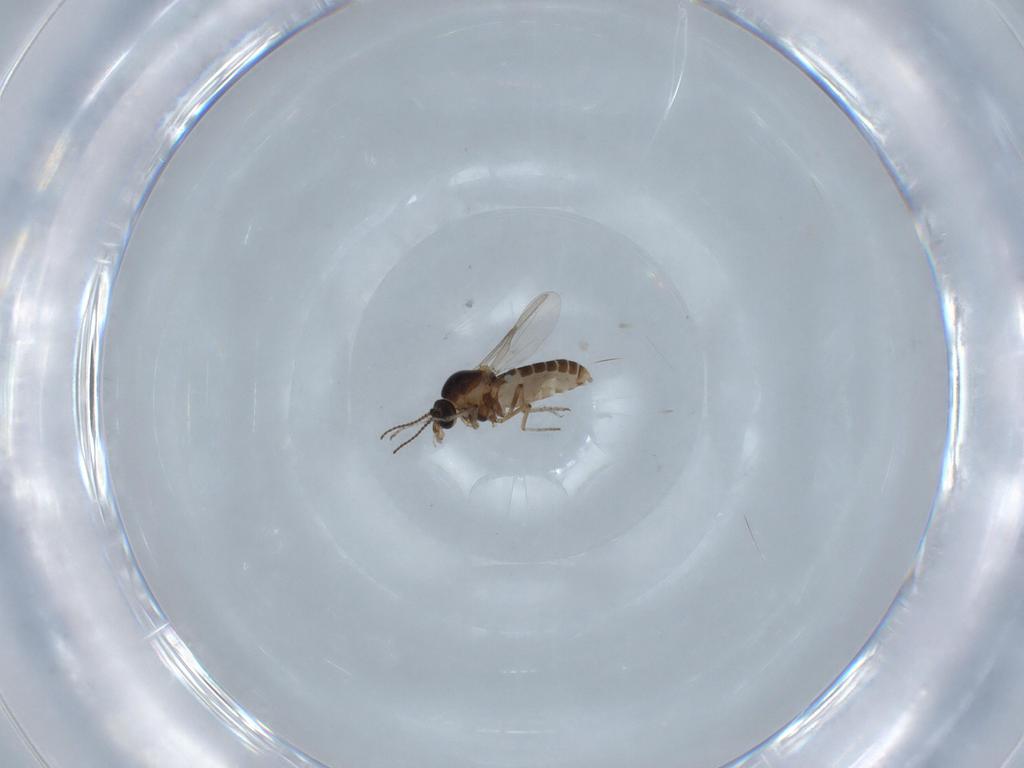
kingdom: Animalia
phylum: Arthropoda
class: Insecta
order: Diptera
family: Ceratopogonidae
